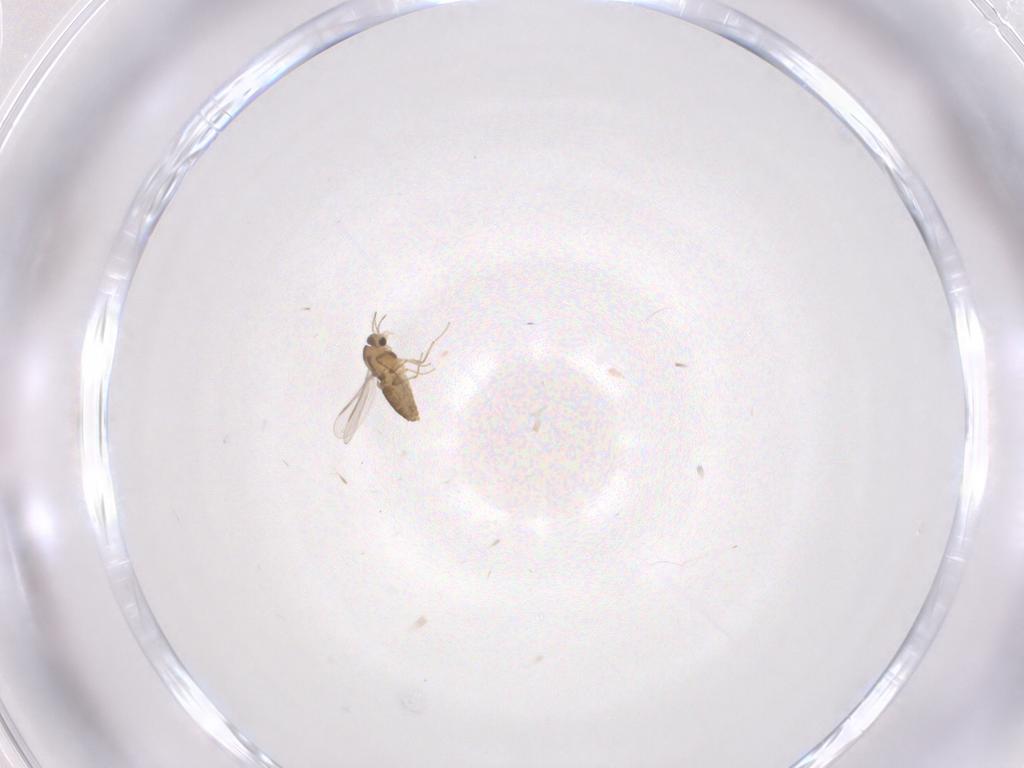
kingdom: Animalia
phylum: Arthropoda
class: Insecta
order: Diptera
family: Chironomidae
